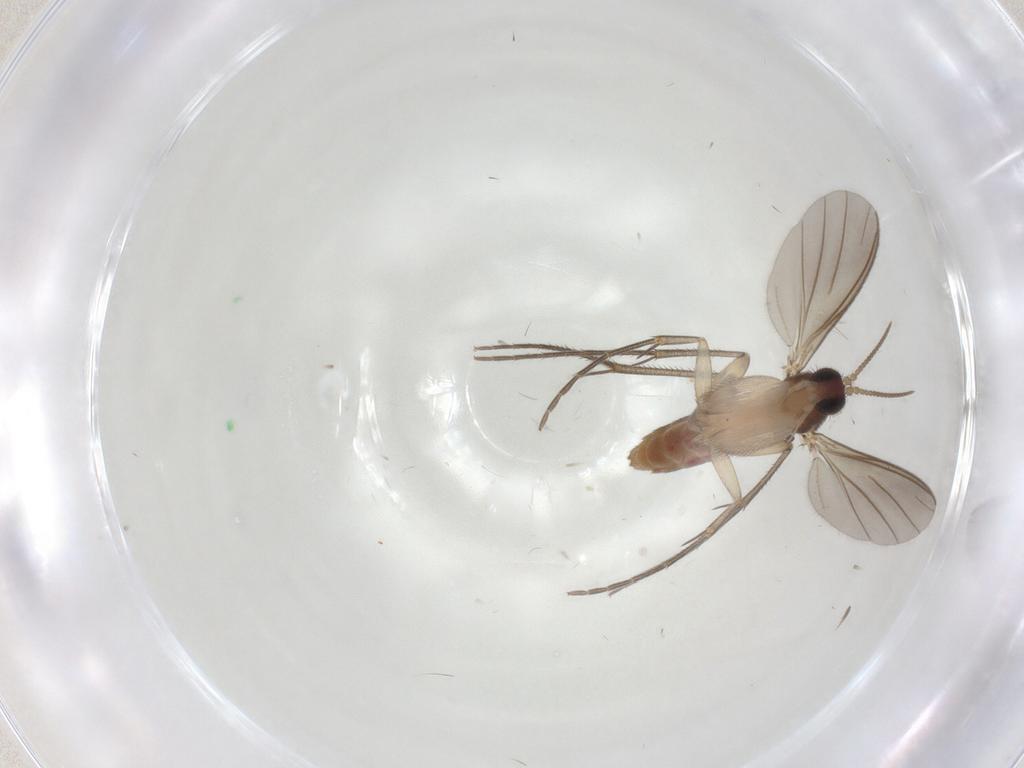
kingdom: Animalia
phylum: Arthropoda
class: Insecta
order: Diptera
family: Mycetophilidae
